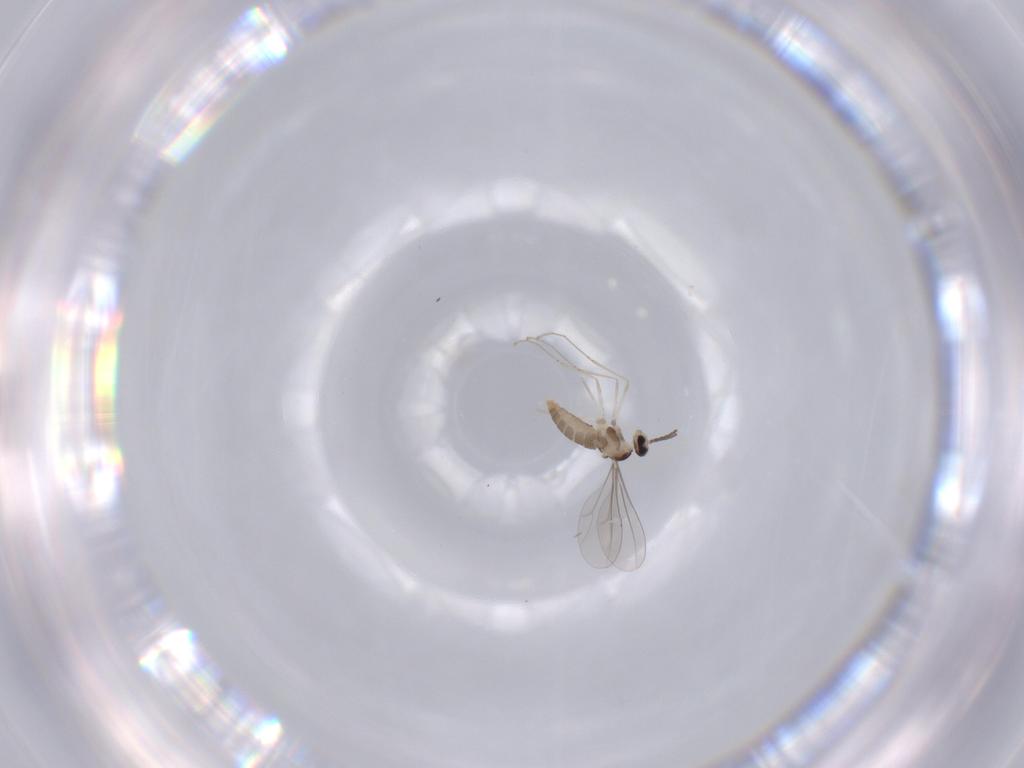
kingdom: Animalia
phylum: Arthropoda
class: Insecta
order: Diptera
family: Cecidomyiidae
